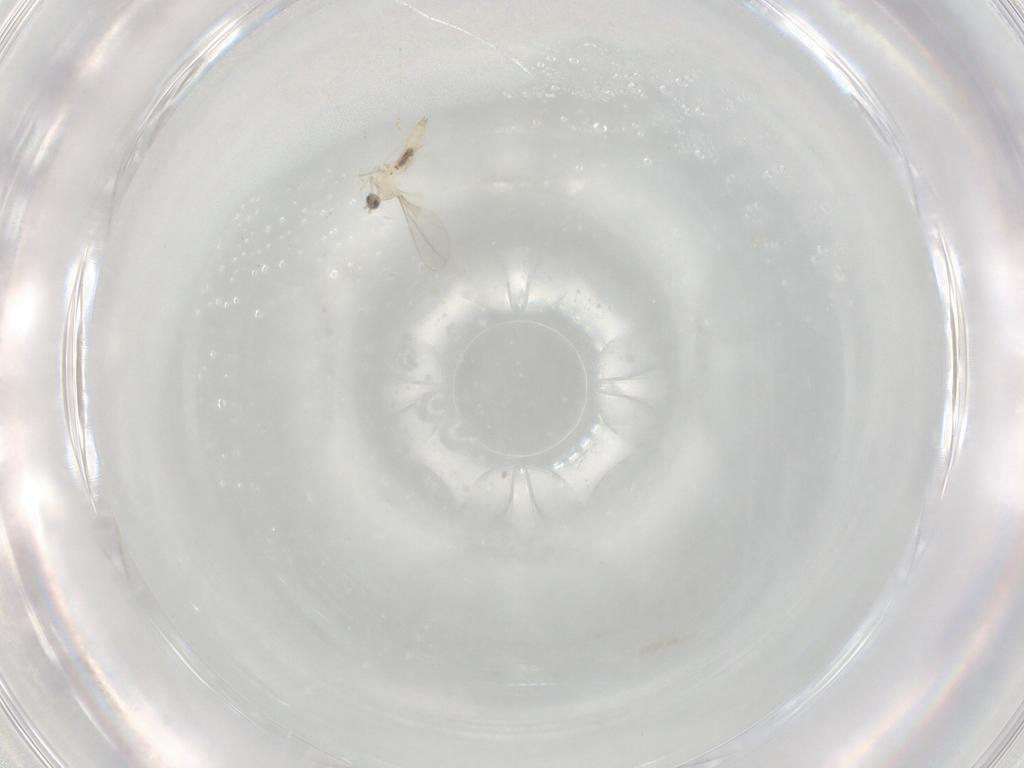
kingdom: Animalia
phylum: Arthropoda
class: Insecta
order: Diptera
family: Cecidomyiidae
